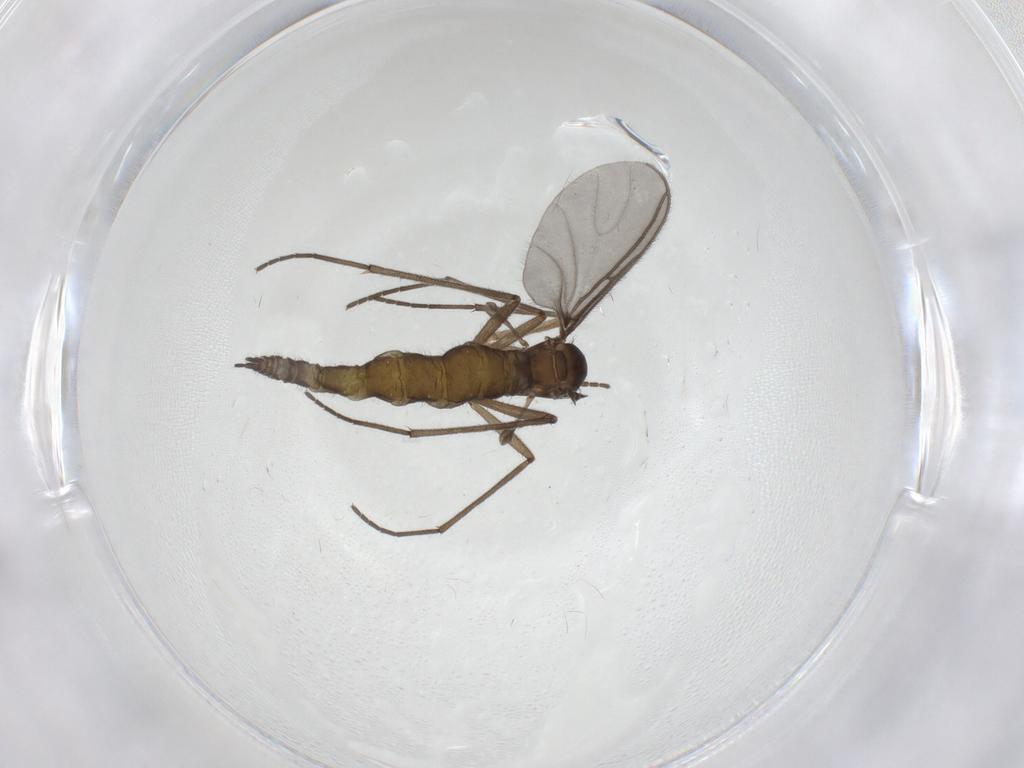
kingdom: Animalia
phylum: Arthropoda
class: Insecta
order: Diptera
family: Sciaridae
